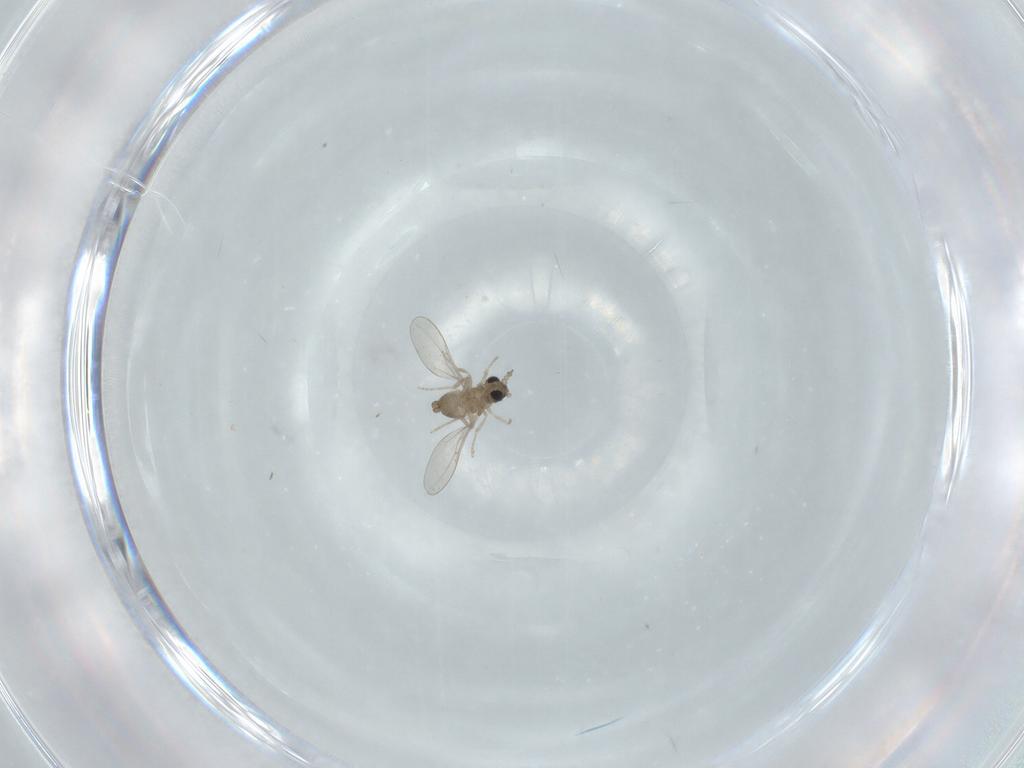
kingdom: Animalia
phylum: Arthropoda
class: Insecta
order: Diptera
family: Cecidomyiidae
